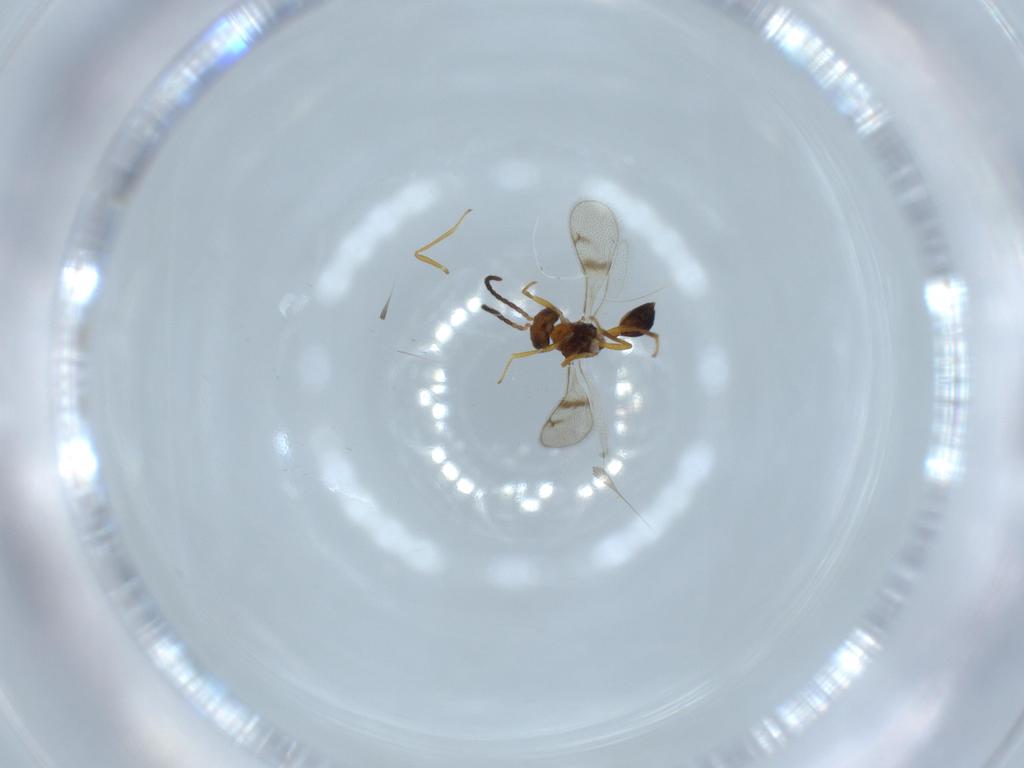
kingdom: Animalia
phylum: Arthropoda
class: Insecta
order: Hymenoptera
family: Diparidae
